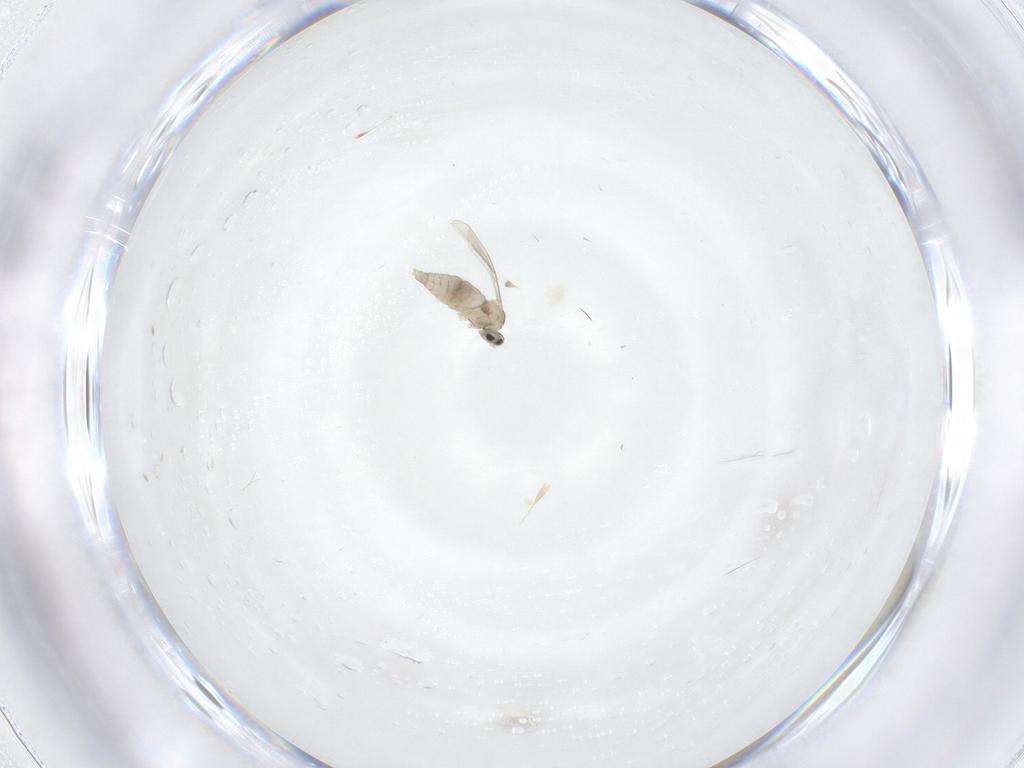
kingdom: Animalia
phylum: Arthropoda
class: Insecta
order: Diptera
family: Cecidomyiidae
